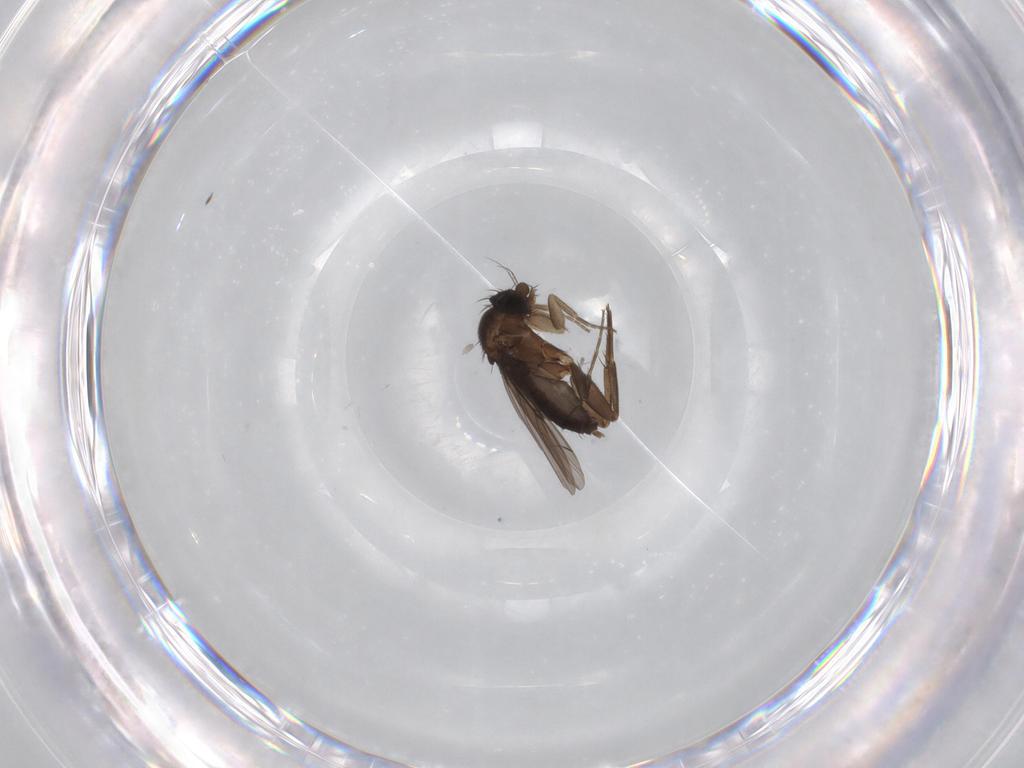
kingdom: Animalia
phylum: Arthropoda
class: Insecta
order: Diptera
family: Phoridae
